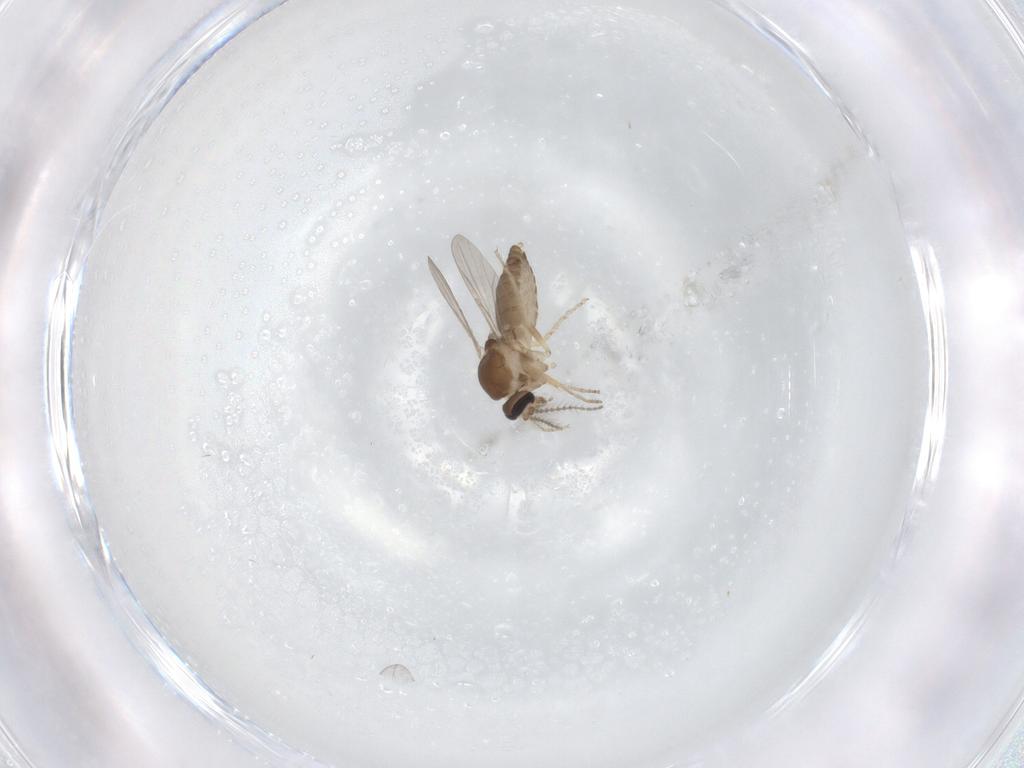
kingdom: Animalia
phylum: Arthropoda
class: Insecta
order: Diptera
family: Ceratopogonidae
